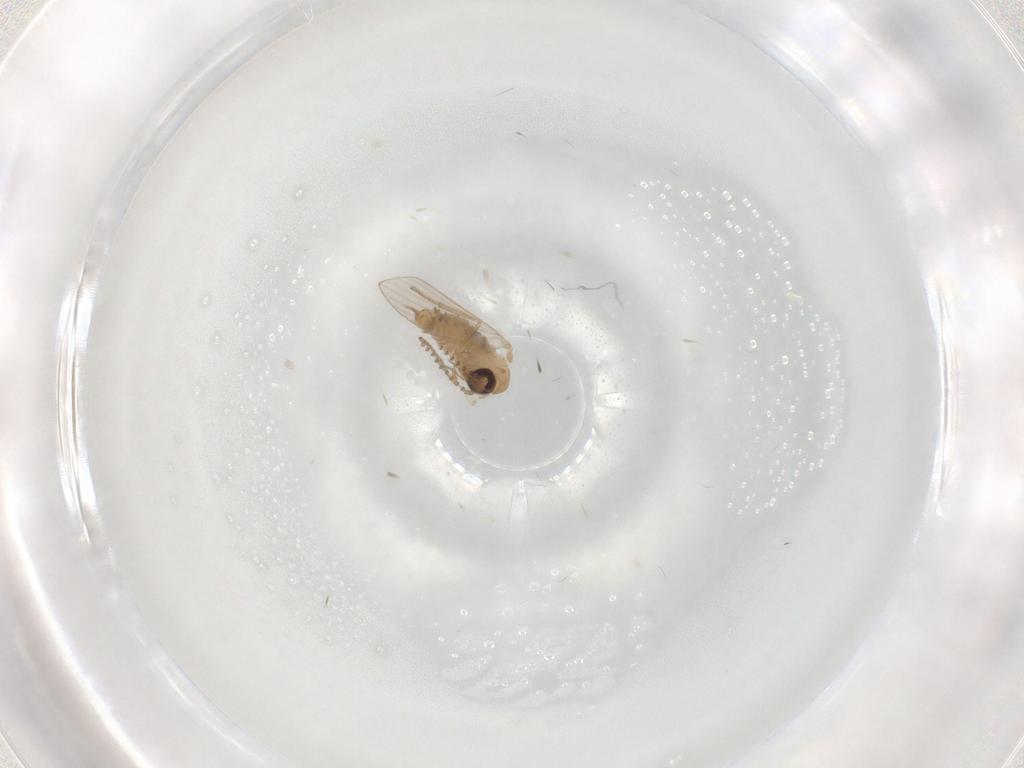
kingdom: Animalia
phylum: Arthropoda
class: Insecta
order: Diptera
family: Psychodidae
